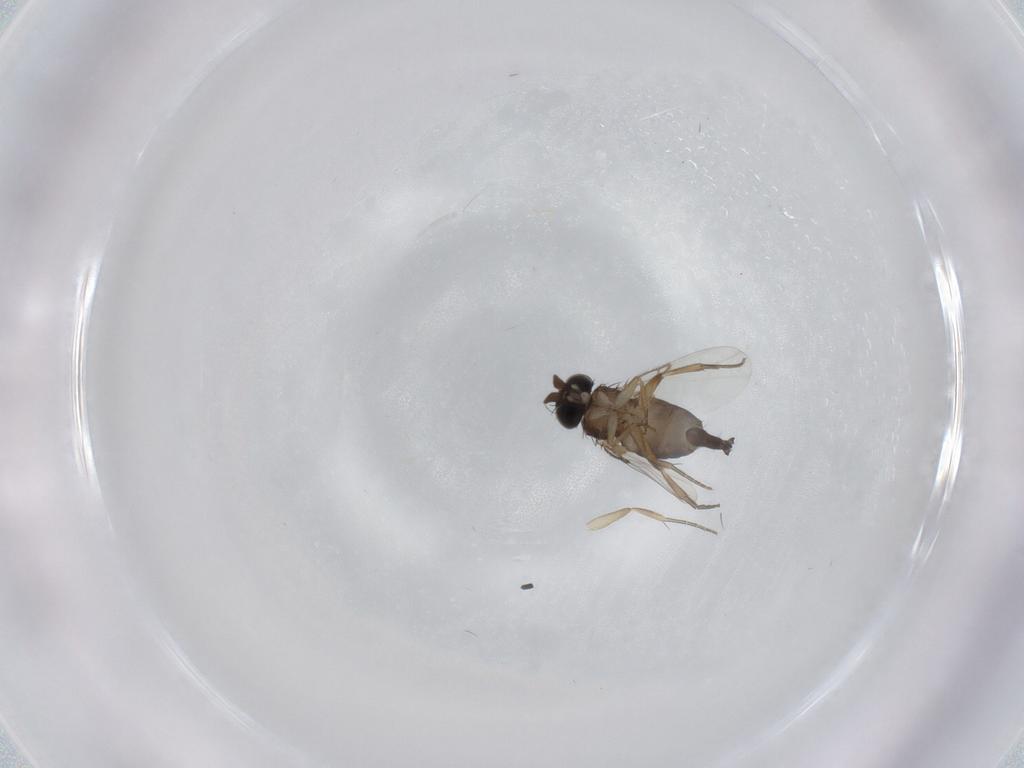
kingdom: Animalia
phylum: Arthropoda
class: Insecta
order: Diptera
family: Cecidomyiidae
